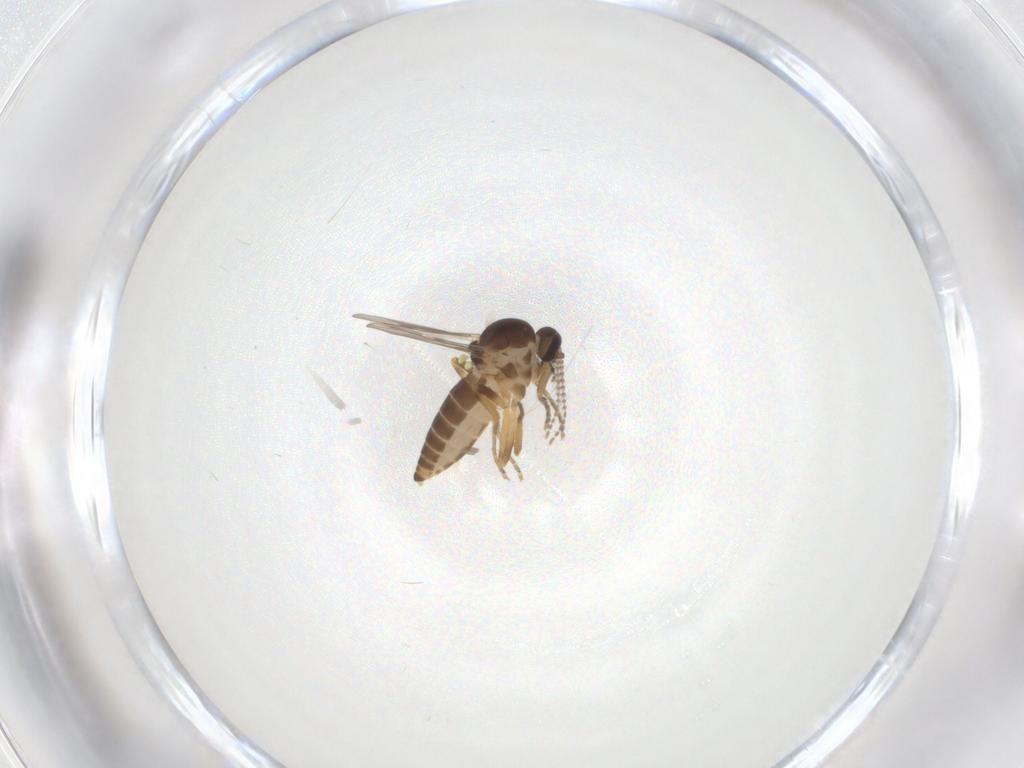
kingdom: Animalia
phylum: Arthropoda
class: Insecta
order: Diptera
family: Ceratopogonidae
